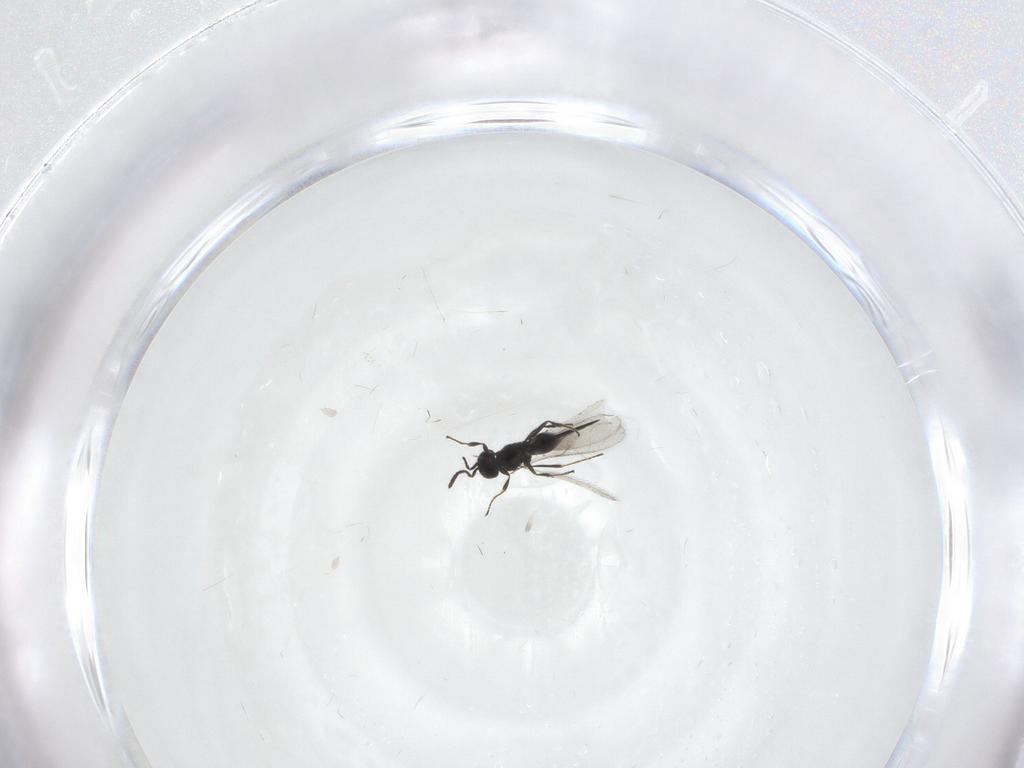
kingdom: Animalia
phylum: Arthropoda
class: Insecta
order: Hymenoptera
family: Scelionidae
